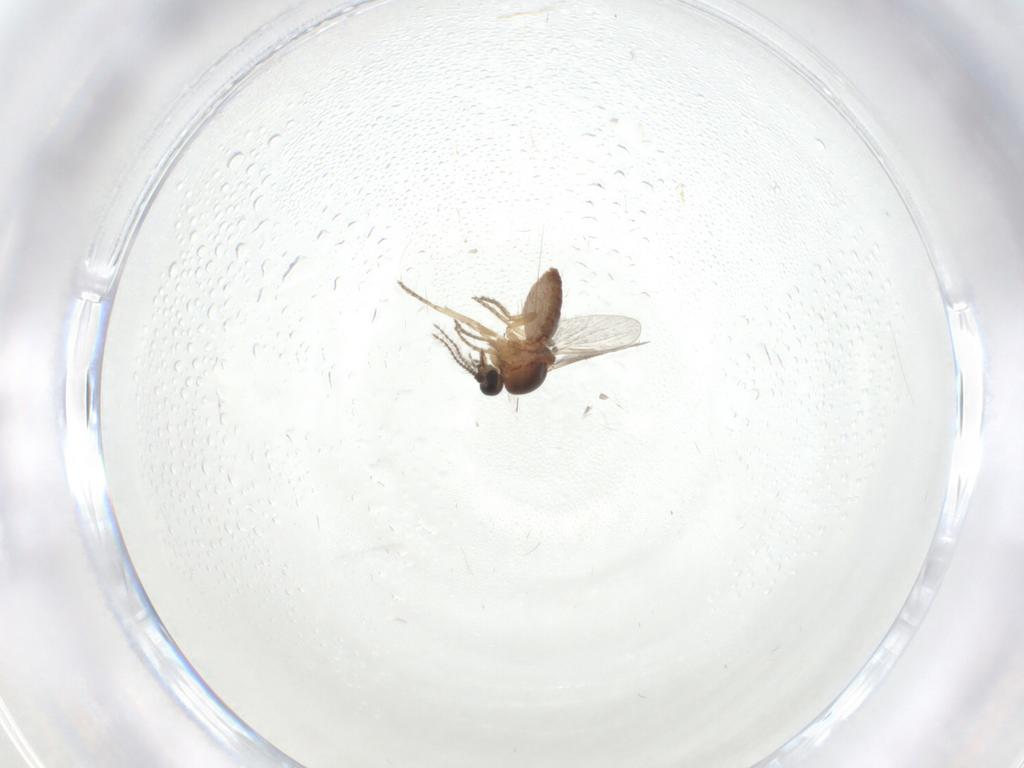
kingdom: Animalia
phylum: Arthropoda
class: Insecta
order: Diptera
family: Ceratopogonidae
